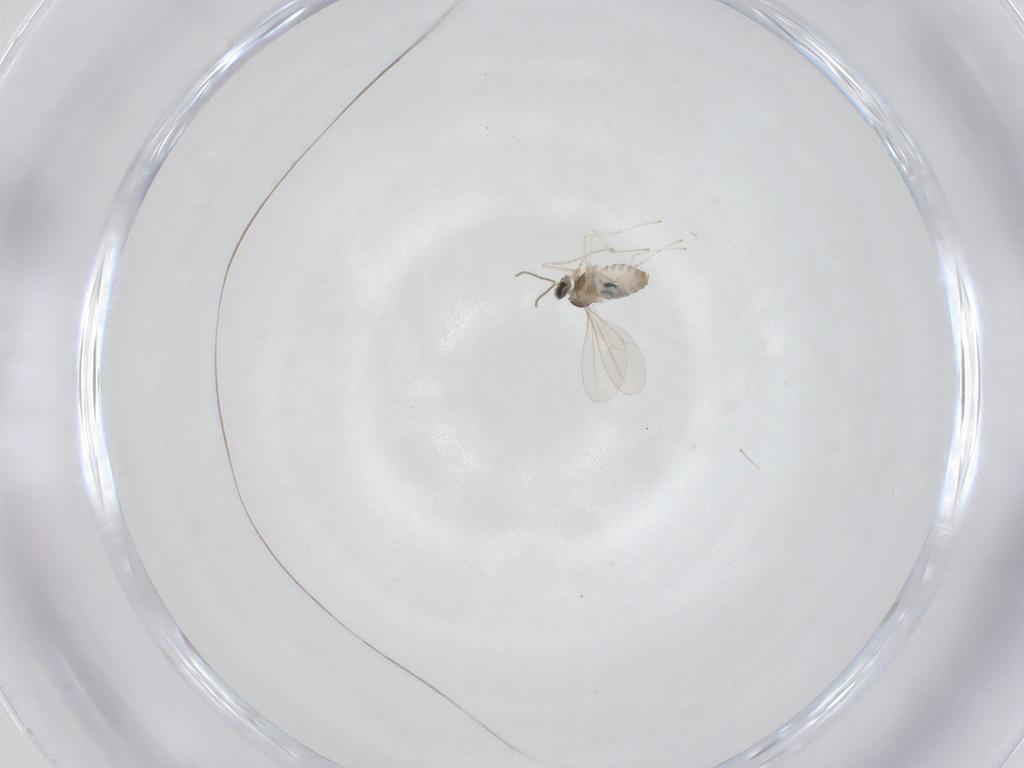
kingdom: Animalia
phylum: Arthropoda
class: Insecta
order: Diptera
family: Cecidomyiidae
